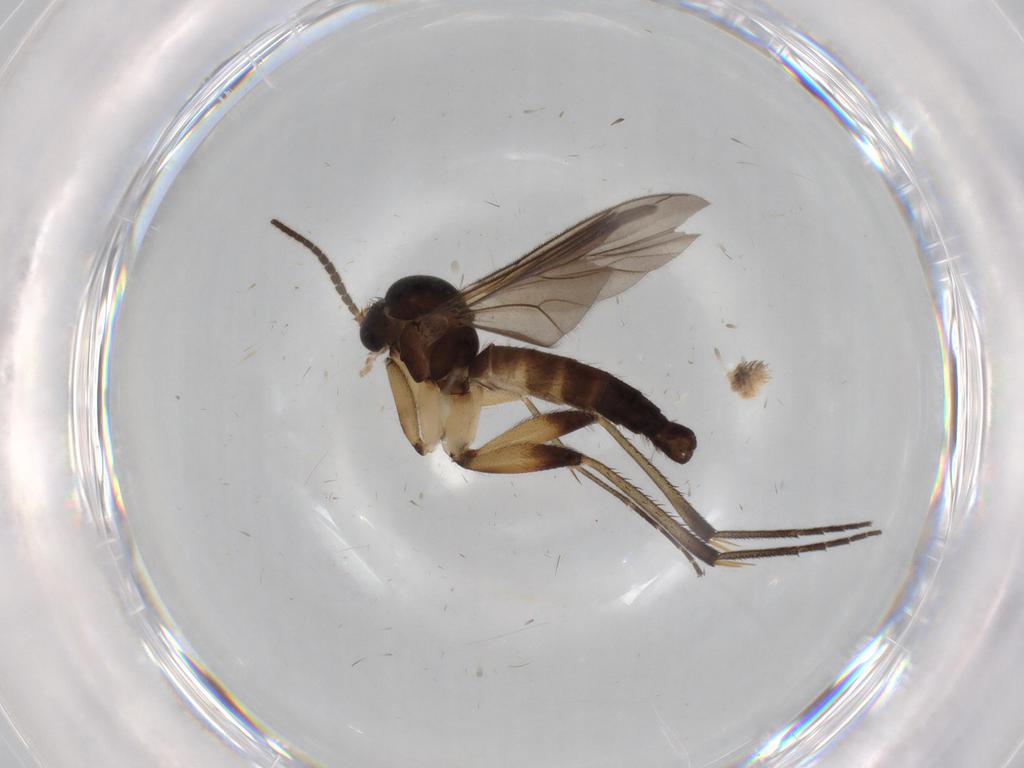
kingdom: Animalia
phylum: Arthropoda
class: Insecta
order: Diptera
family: Mycetophilidae
